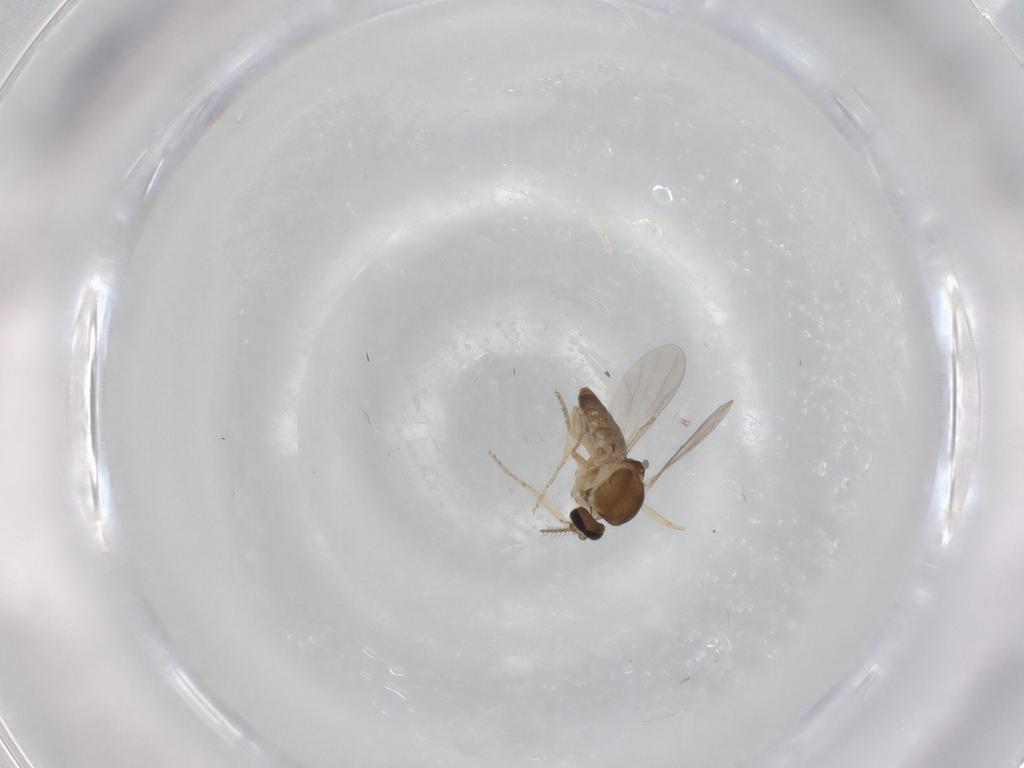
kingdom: Animalia
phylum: Arthropoda
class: Insecta
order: Diptera
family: Ceratopogonidae
